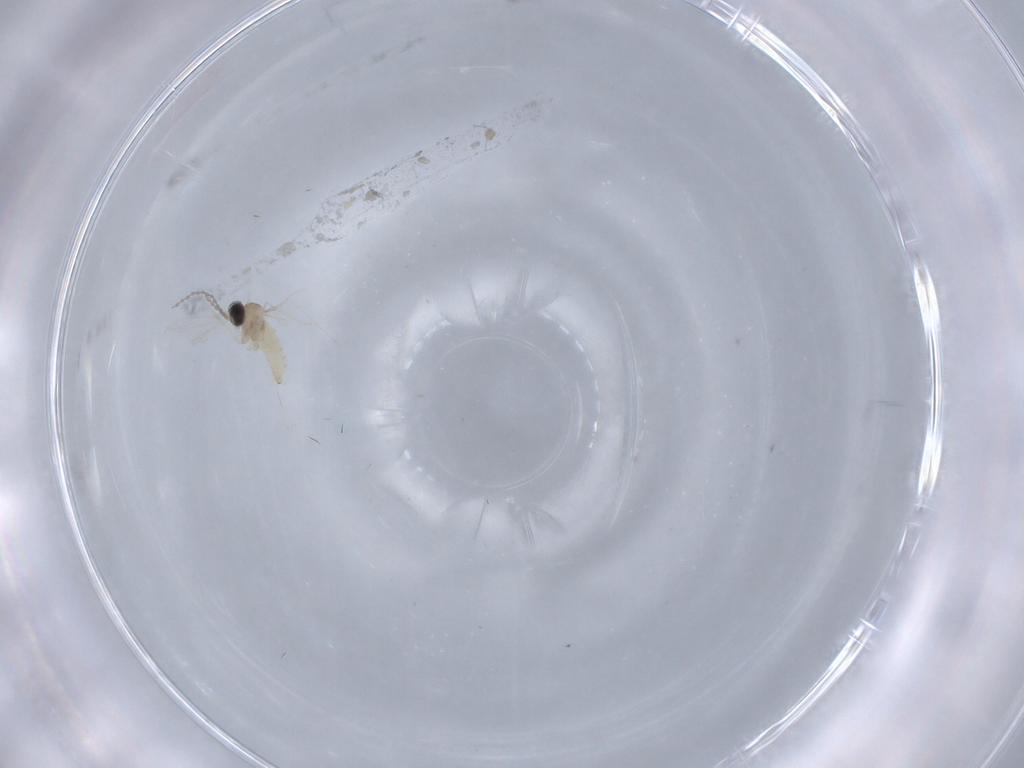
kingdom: Animalia
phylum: Arthropoda
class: Insecta
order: Diptera
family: Cecidomyiidae
